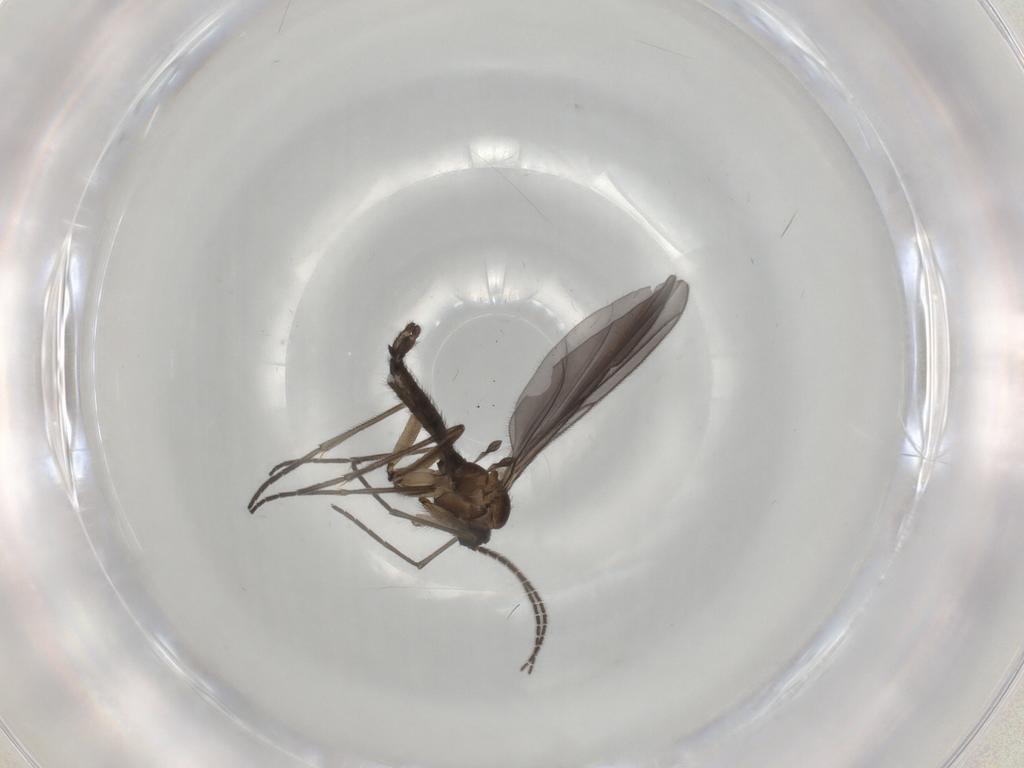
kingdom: Animalia
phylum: Arthropoda
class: Insecta
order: Diptera
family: Sciaridae
